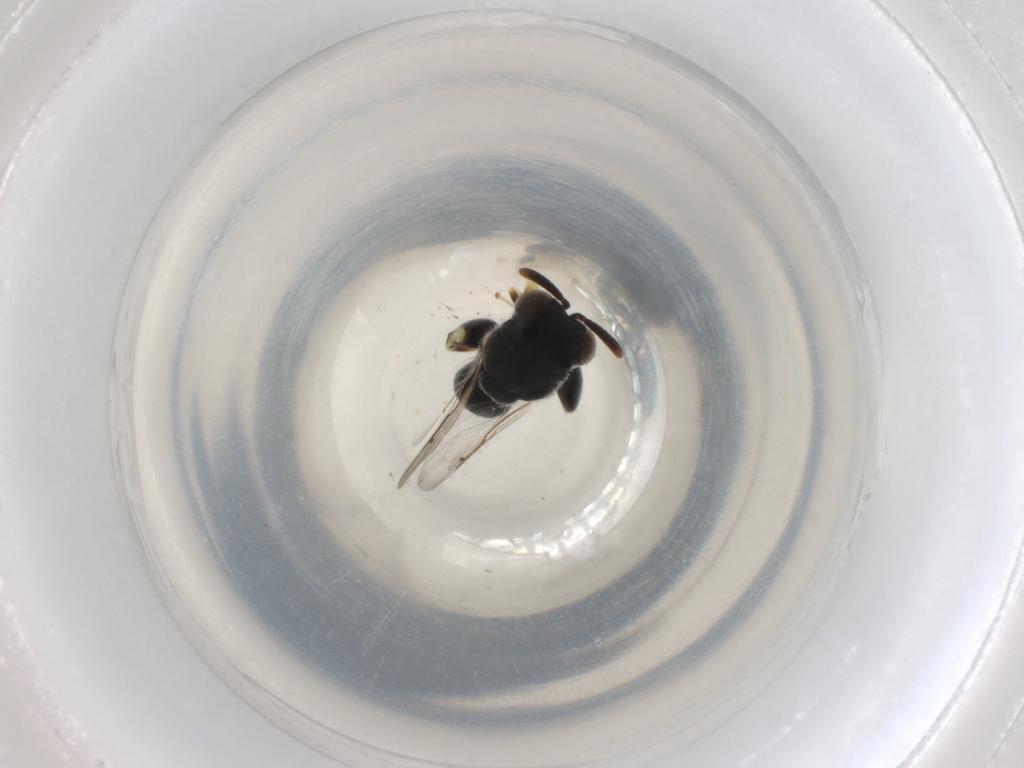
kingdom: Animalia
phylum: Arthropoda
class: Insecta
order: Hymenoptera
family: Chalcididae
